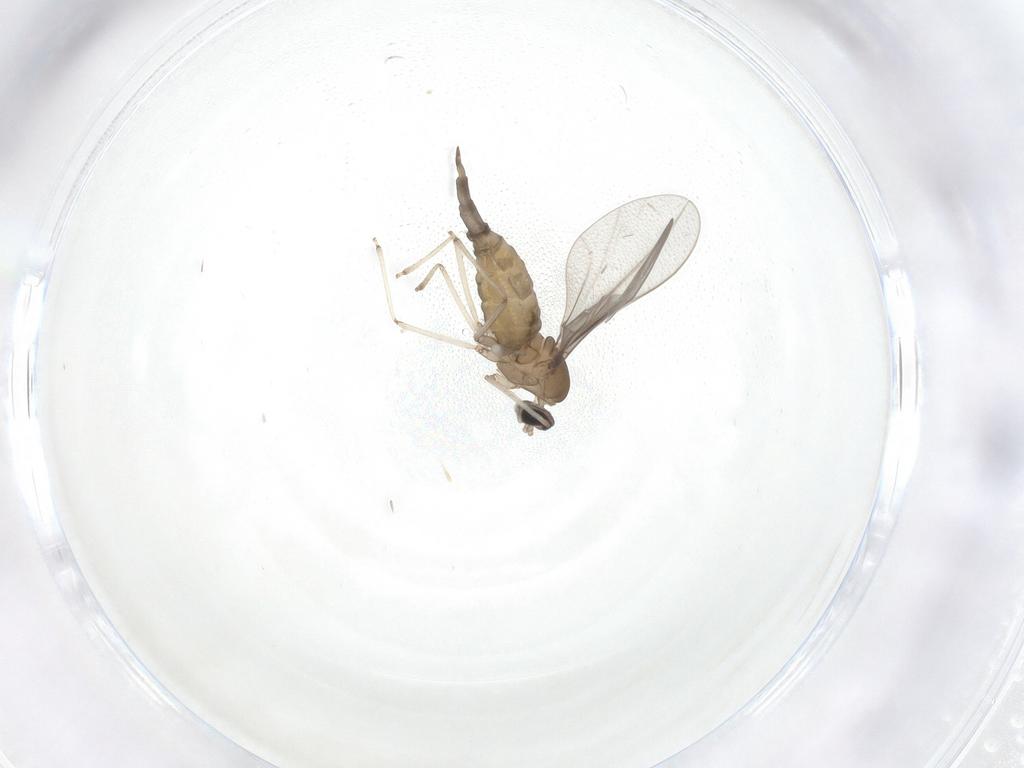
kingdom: Animalia
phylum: Arthropoda
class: Insecta
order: Diptera
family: Cecidomyiidae
